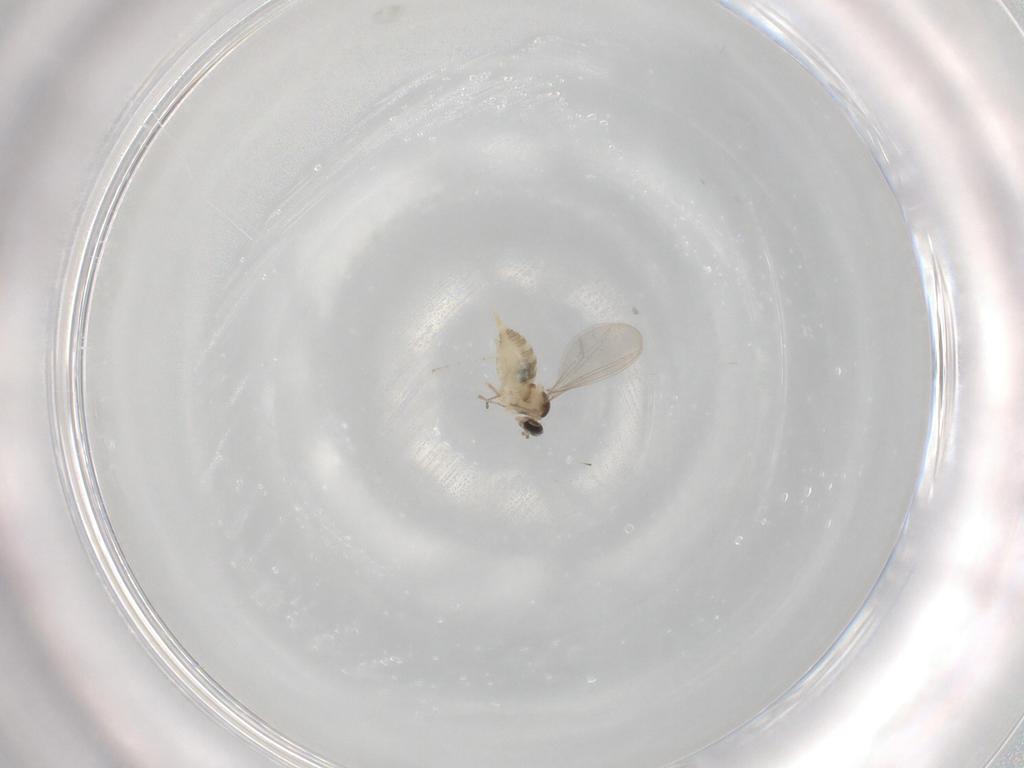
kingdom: Animalia
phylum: Arthropoda
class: Insecta
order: Diptera
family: Cecidomyiidae
